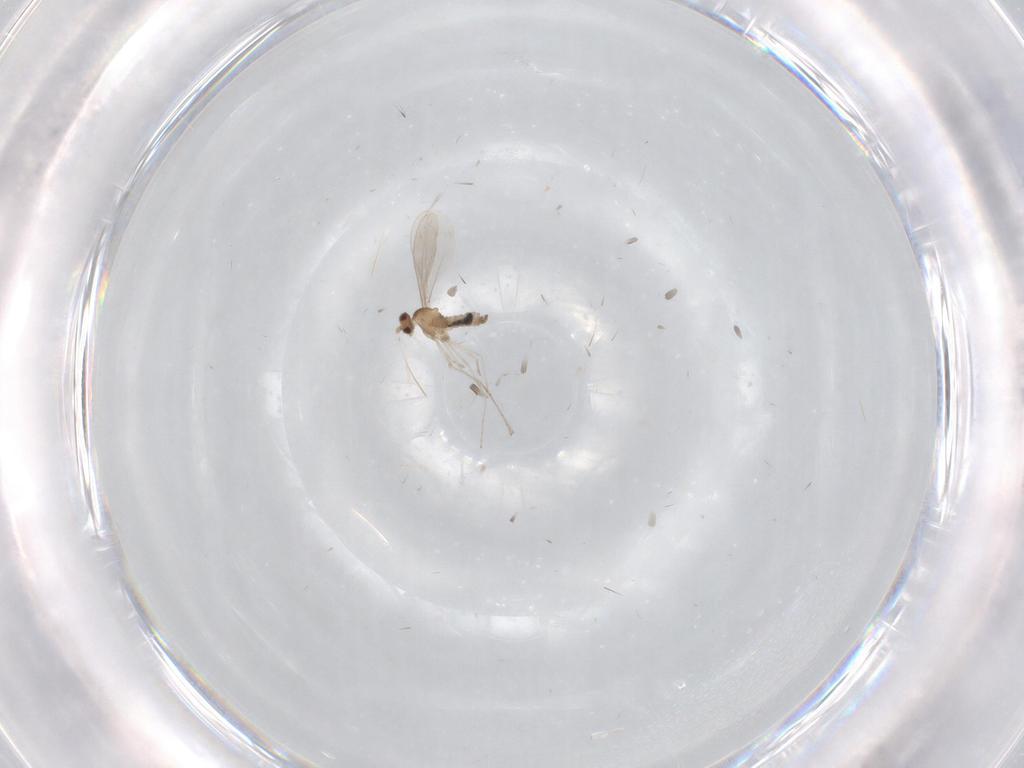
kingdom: Animalia
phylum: Arthropoda
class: Insecta
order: Diptera
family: Chironomidae
